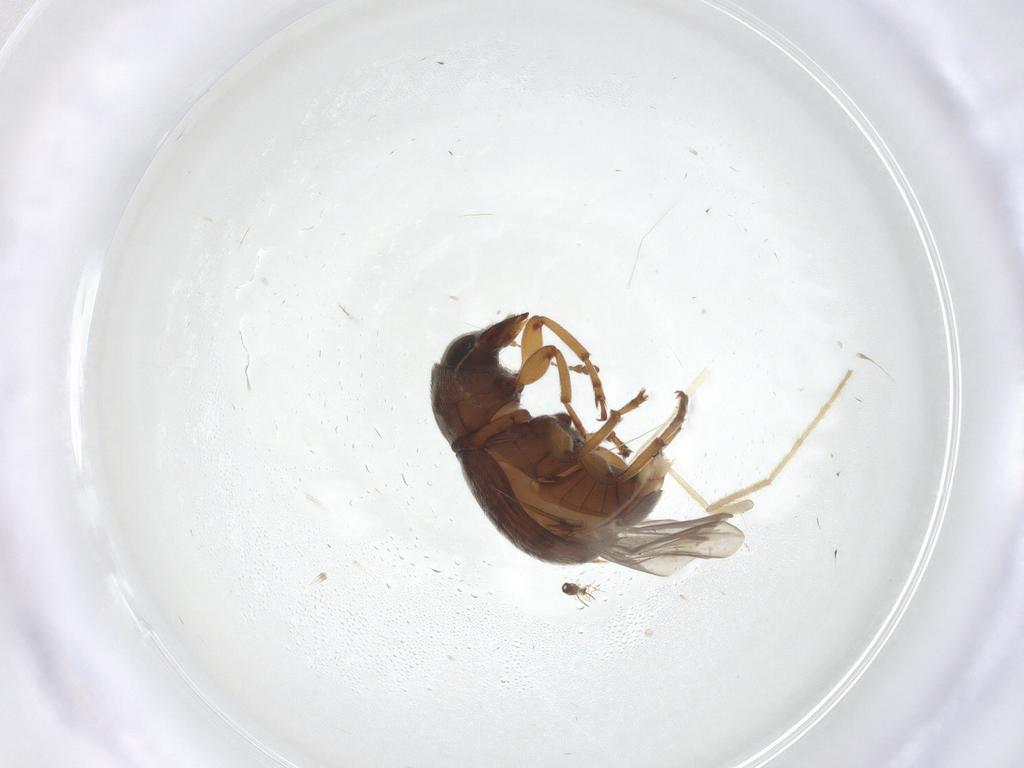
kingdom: Animalia
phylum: Arthropoda
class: Insecta
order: Coleoptera
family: Anthribidae
